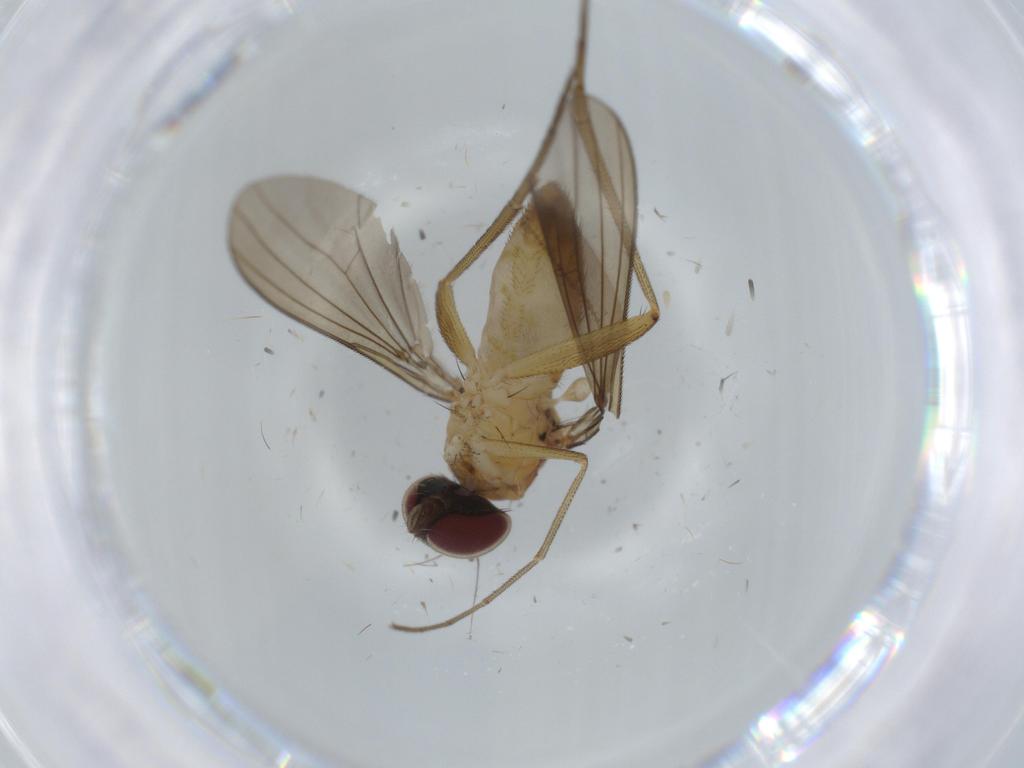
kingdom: Animalia
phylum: Arthropoda
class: Insecta
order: Diptera
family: Dolichopodidae
